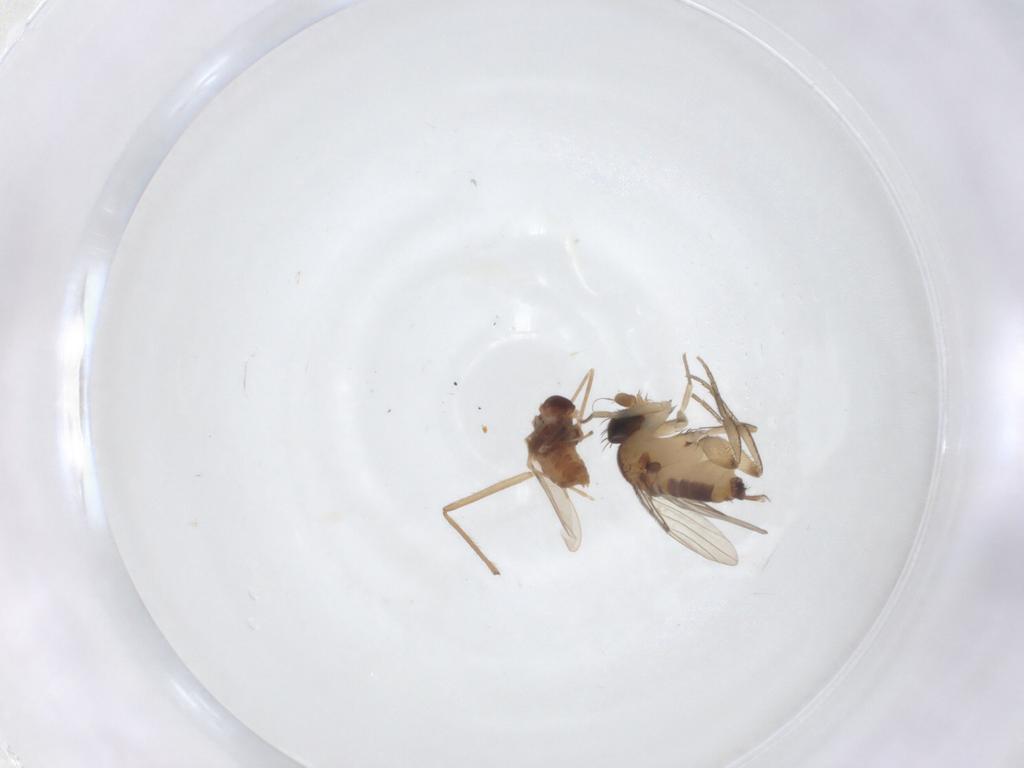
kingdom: Animalia
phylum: Arthropoda
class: Insecta
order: Diptera
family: Cecidomyiidae
